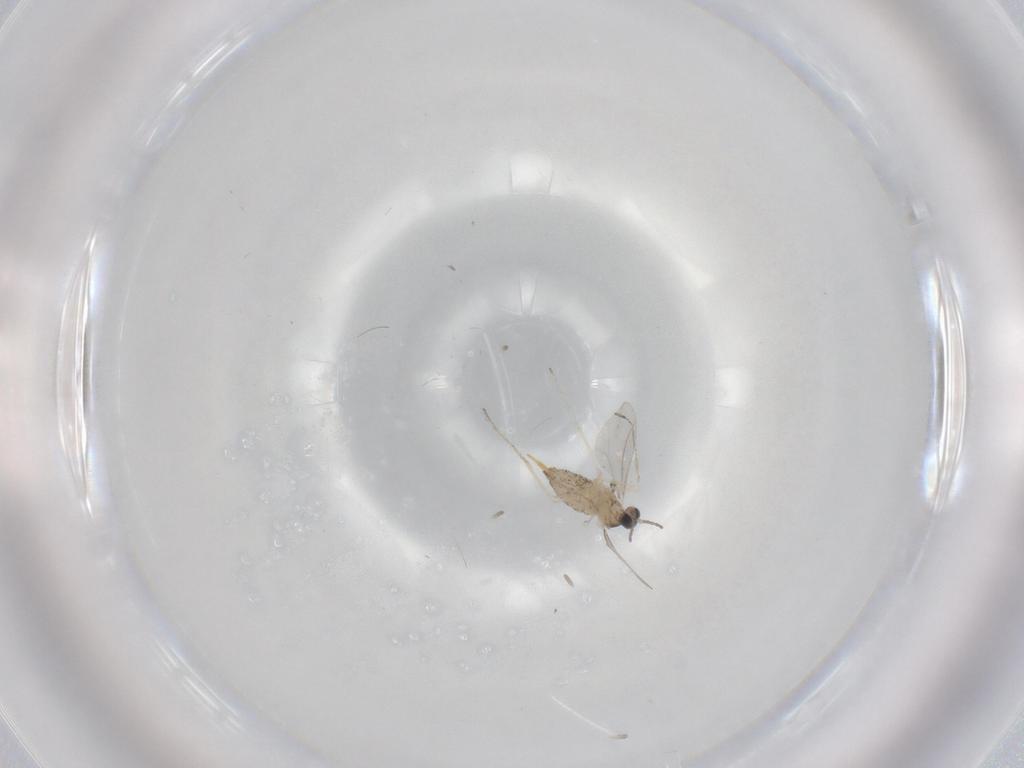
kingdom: Animalia
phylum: Arthropoda
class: Insecta
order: Diptera
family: Cecidomyiidae
